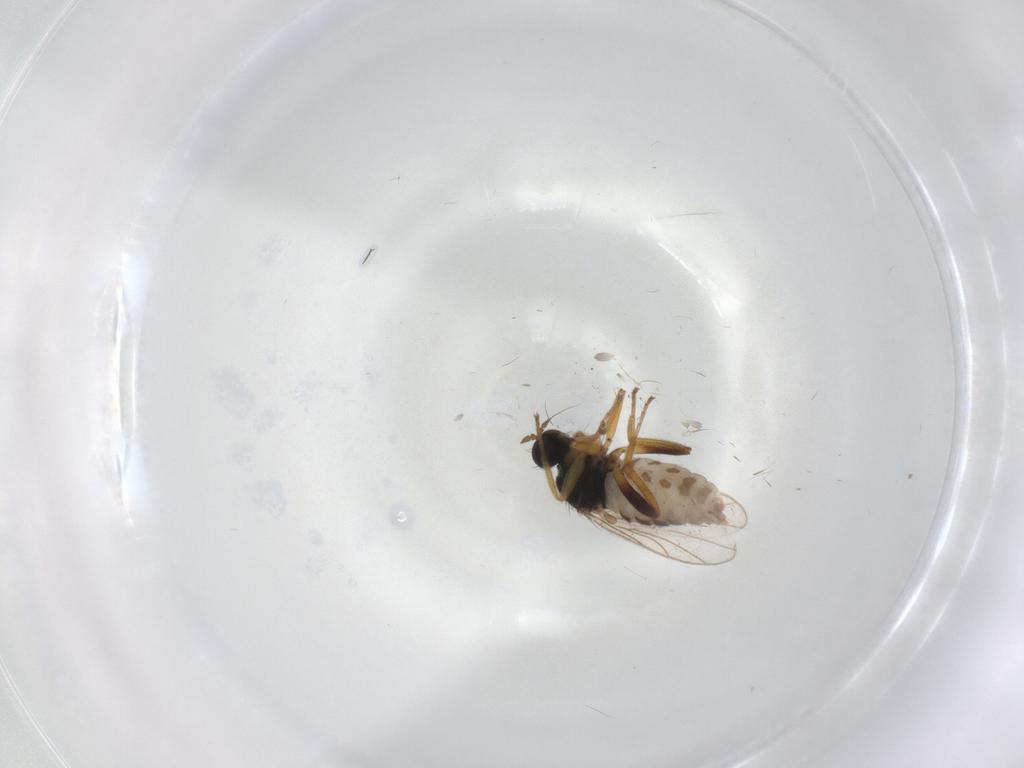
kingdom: Animalia
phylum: Arthropoda
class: Insecta
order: Diptera
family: Hybotidae
